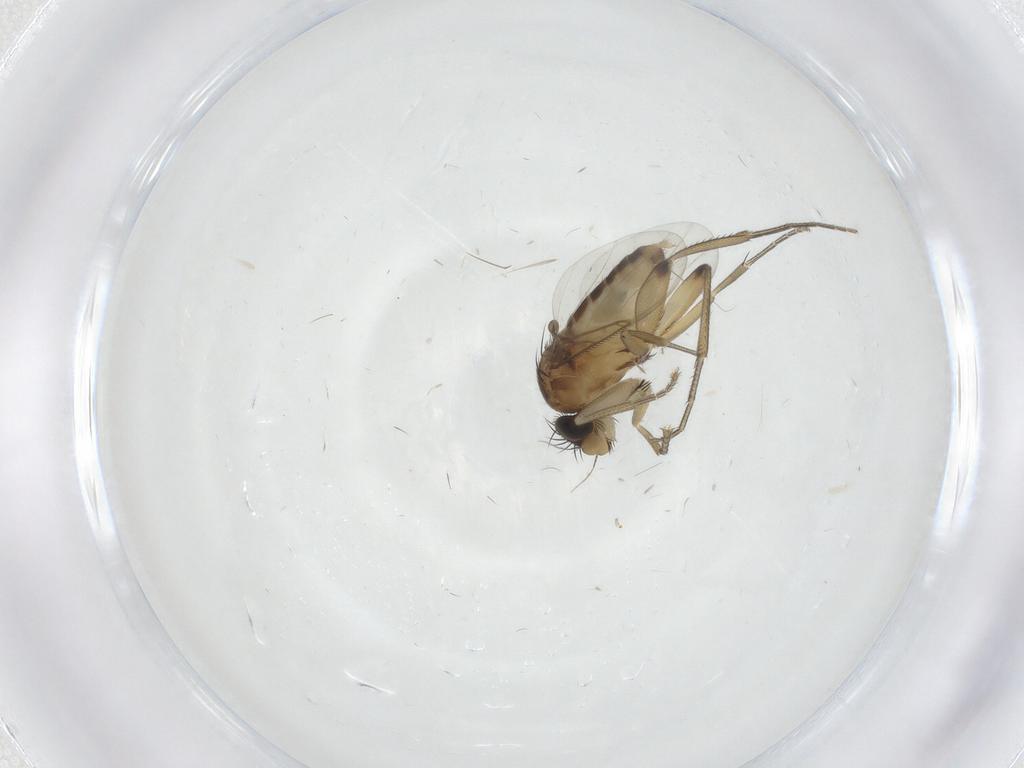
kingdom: Animalia
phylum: Arthropoda
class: Insecta
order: Diptera
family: Phoridae
